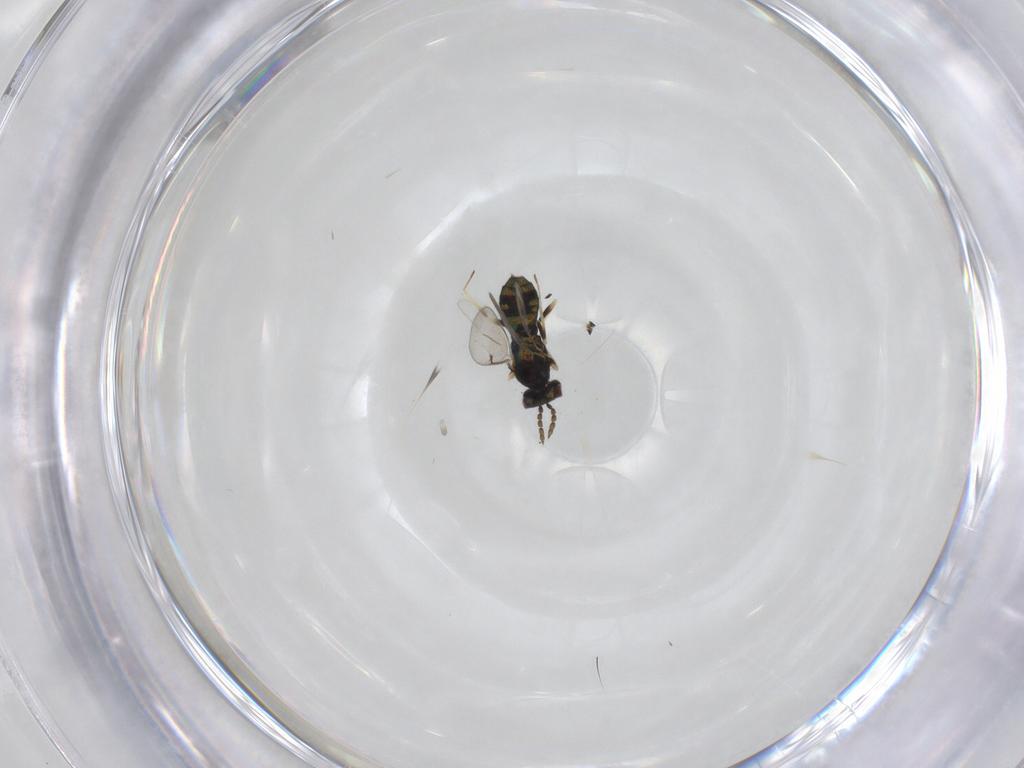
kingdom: Animalia
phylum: Arthropoda
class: Insecta
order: Hymenoptera
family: Eulophidae
